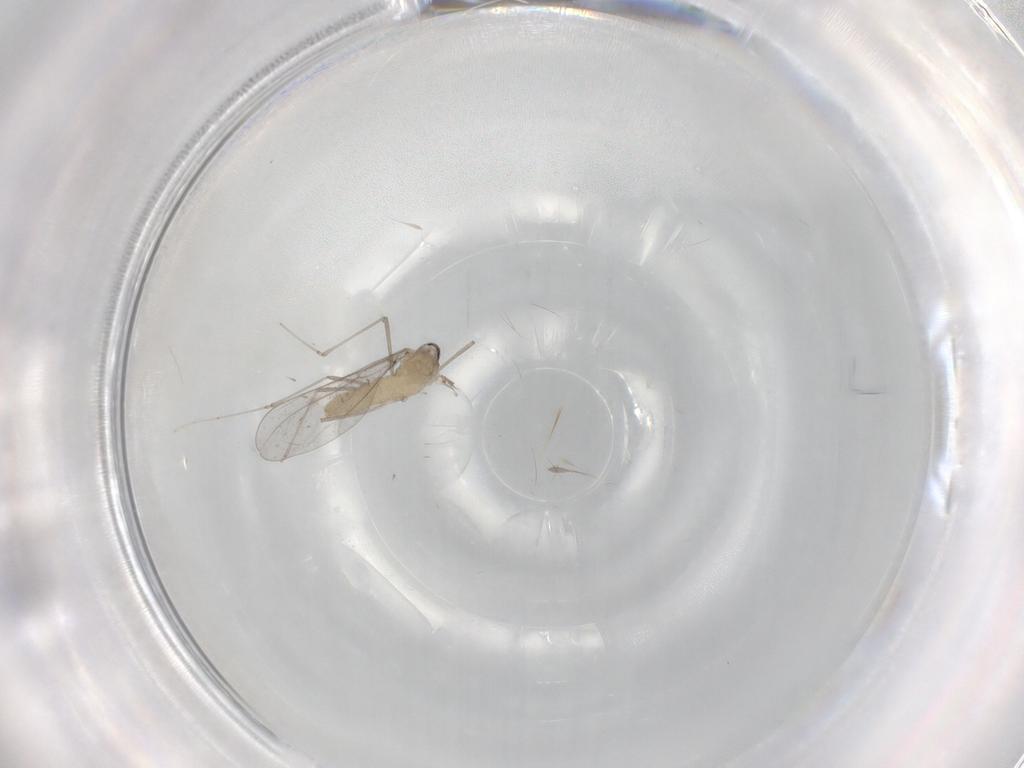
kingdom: Animalia
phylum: Arthropoda
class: Insecta
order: Diptera
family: Cecidomyiidae
